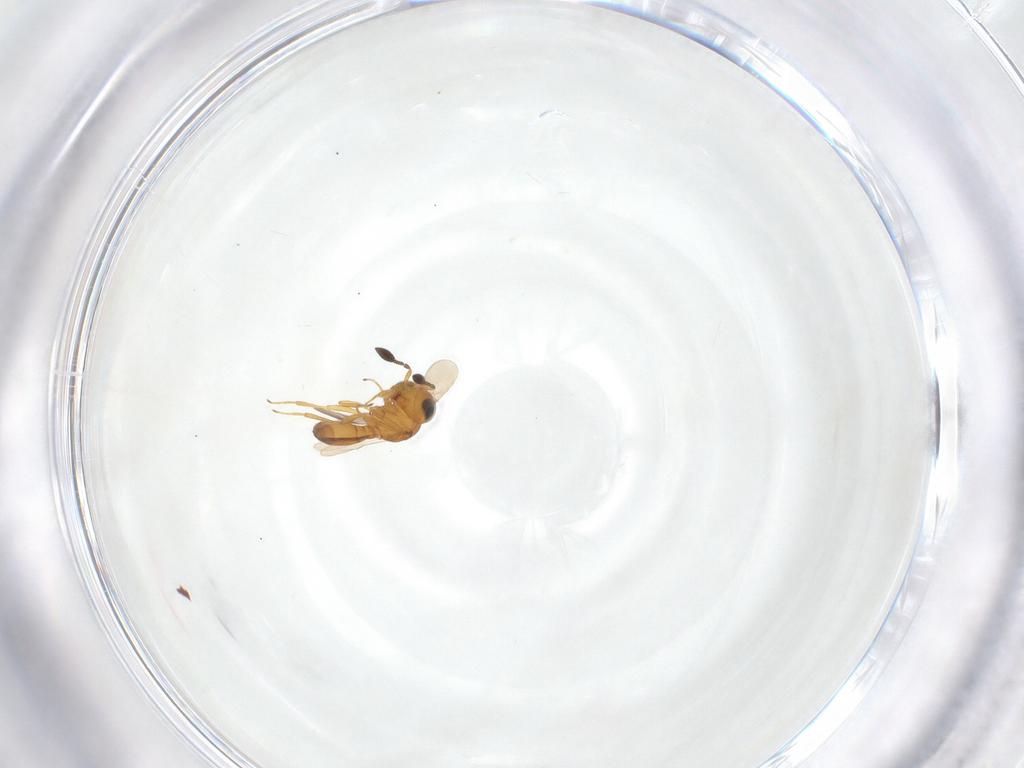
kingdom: Animalia
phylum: Arthropoda
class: Insecta
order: Hymenoptera
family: Scelionidae
